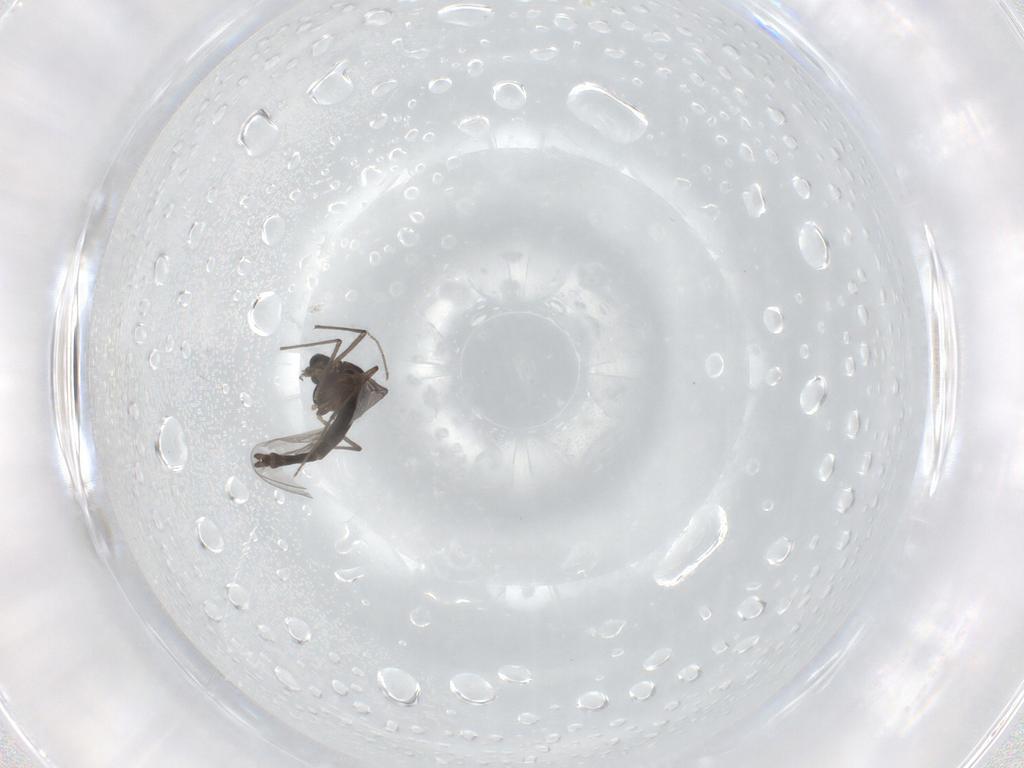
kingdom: Animalia
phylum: Arthropoda
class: Insecta
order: Diptera
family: Chironomidae
